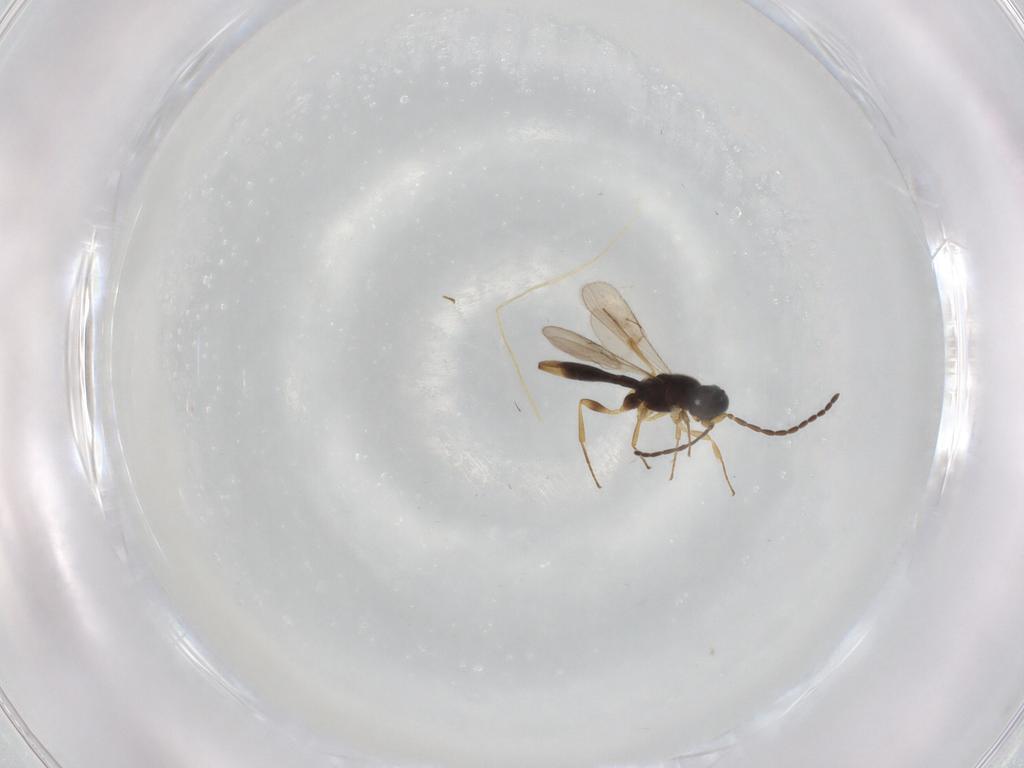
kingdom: Animalia
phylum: Arthropoda
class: Insecta
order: Hymenoptera
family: Scelionidae
